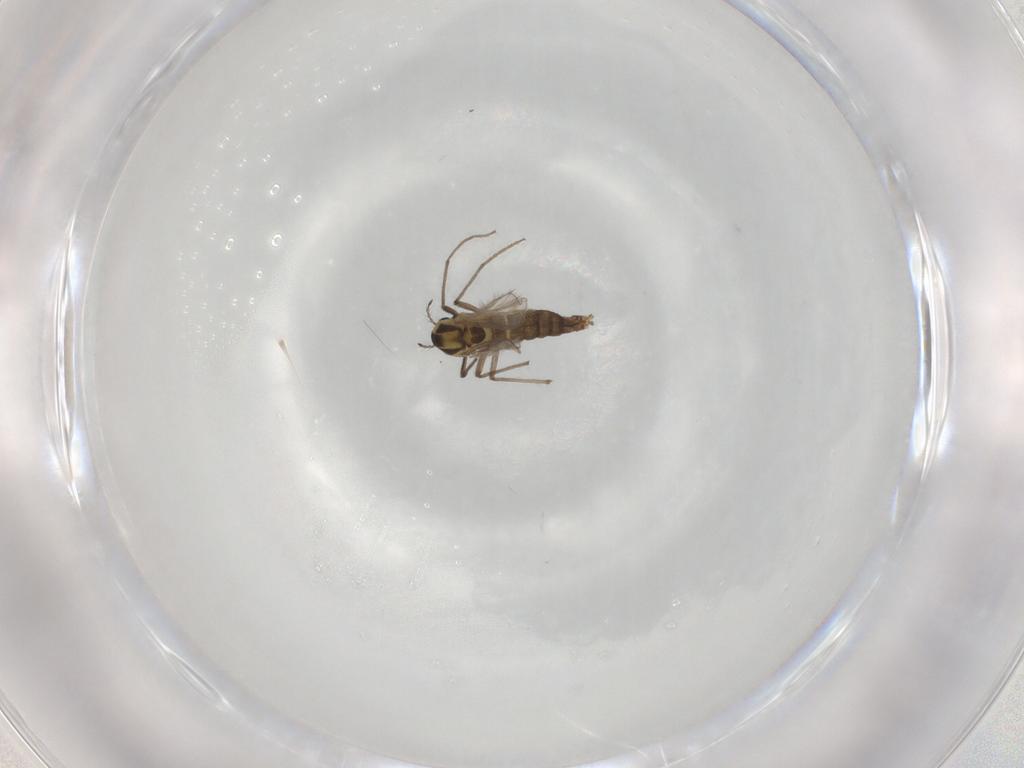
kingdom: Animalia
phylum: Arthropoda
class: Insecta
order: Diptera
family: Chironomidae
